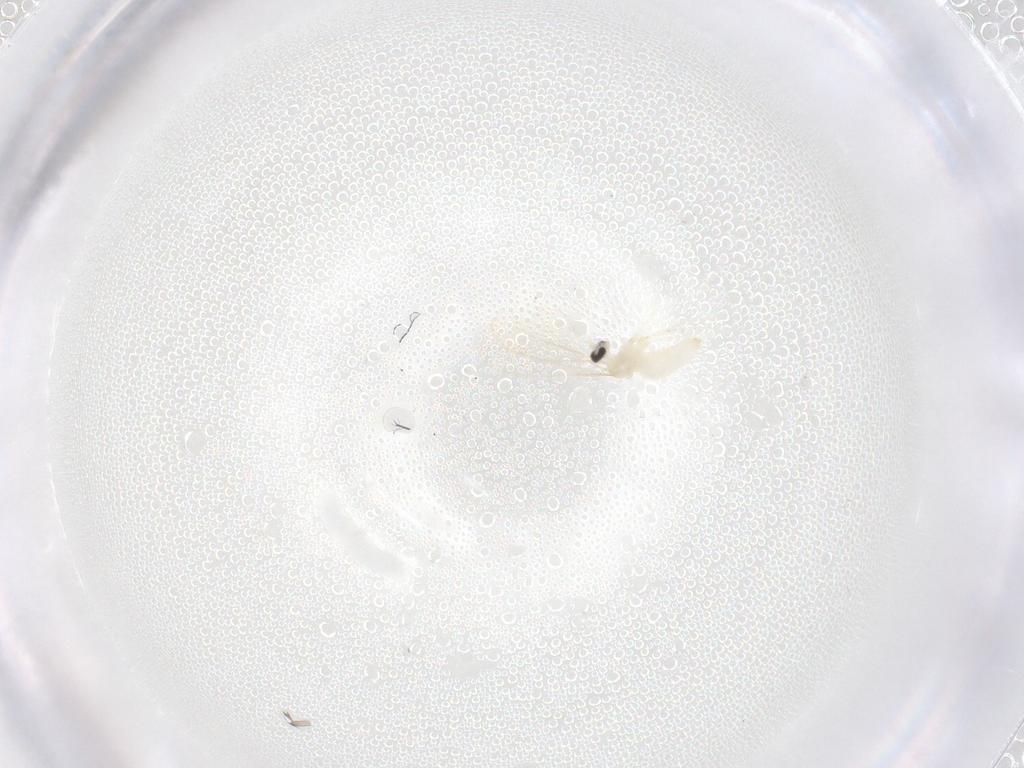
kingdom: Animalia
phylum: Arthropoda
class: Insecta
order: Diptera
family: Cecidomyiidae
